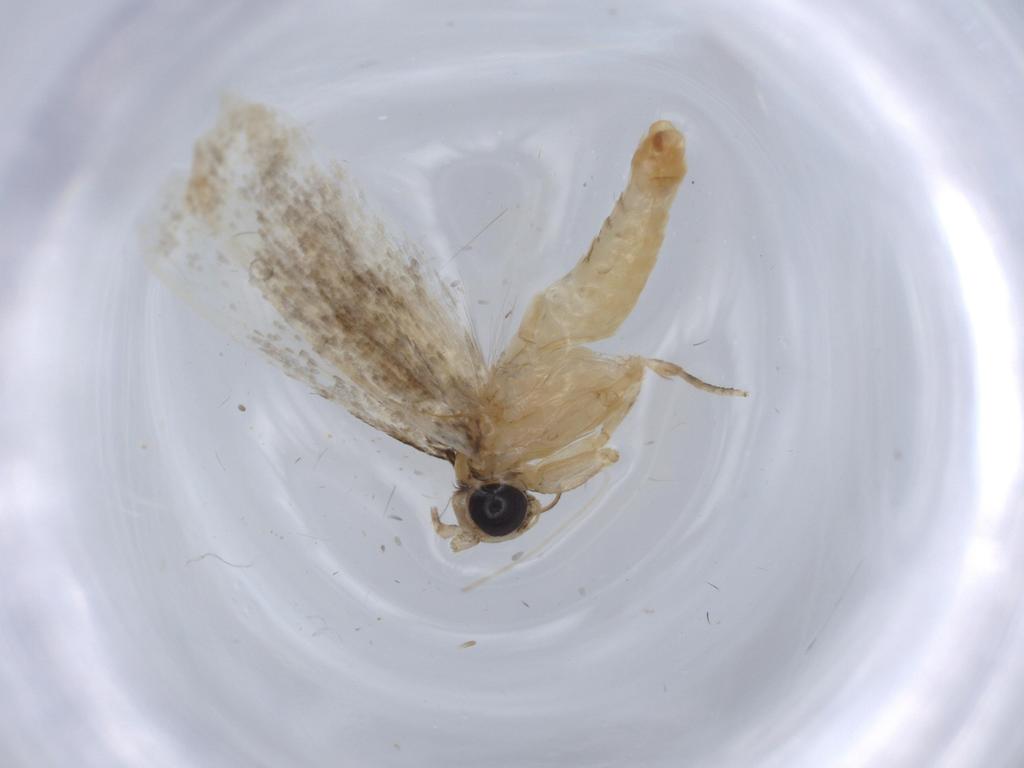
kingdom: Animalia
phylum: Arthropoda
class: Insecta
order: Lepidoptera
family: Tineidae
